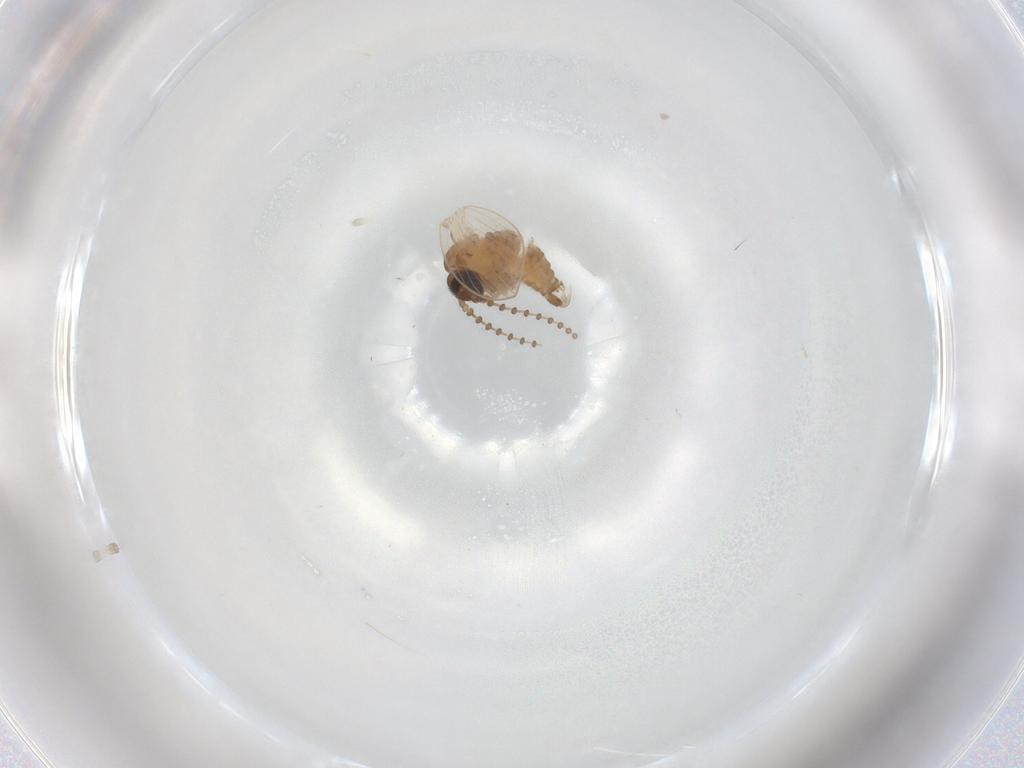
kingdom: Animalia
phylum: Arthropoda
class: Insecta
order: Diptera
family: Ceratopogonidae
